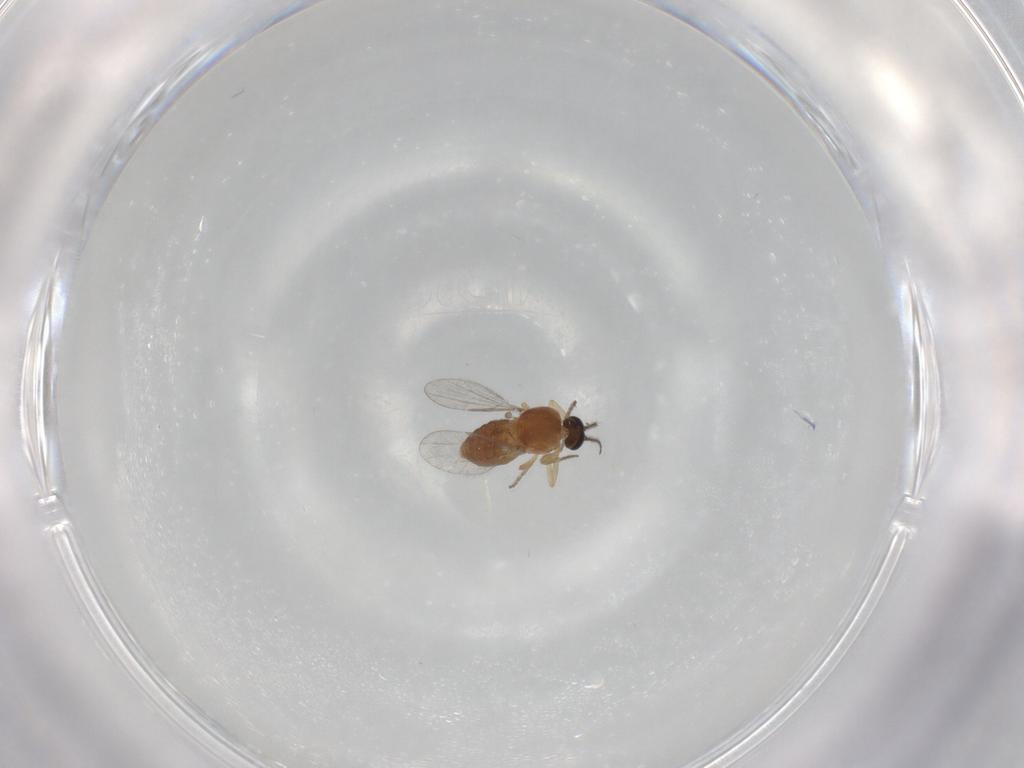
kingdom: Animalia
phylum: Arthropoda
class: Insecta
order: Diptera
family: Ceratopogonidae
